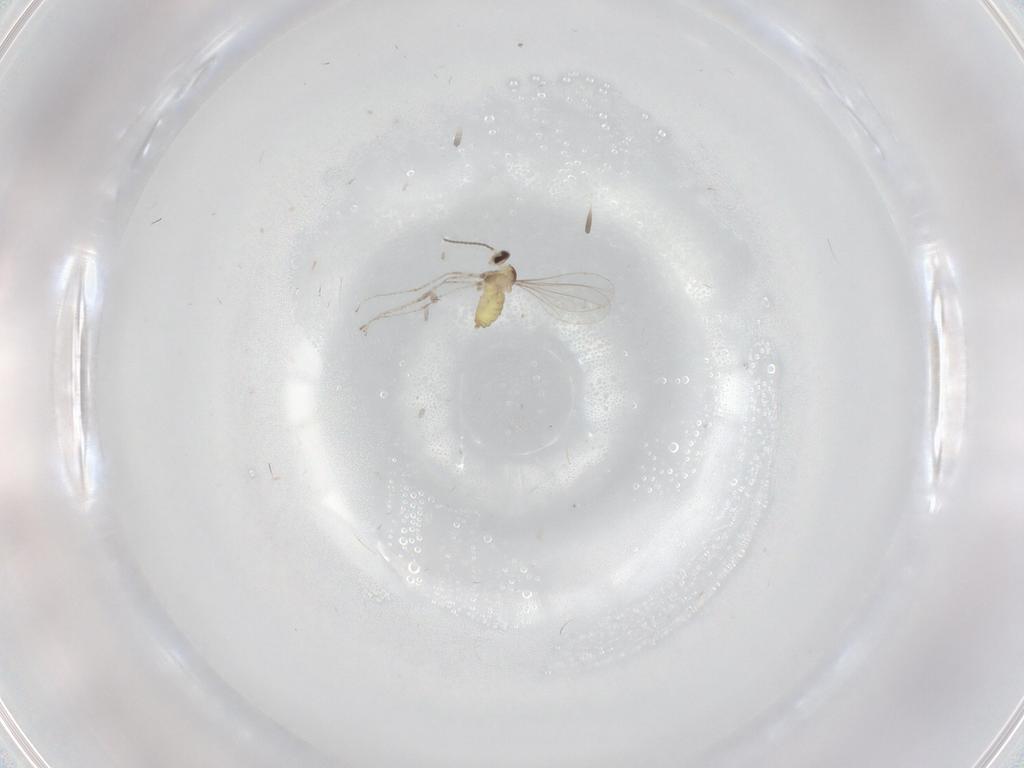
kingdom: Animalia
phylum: Arthropoda
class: Insecta
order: Diptera
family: Cecidomyiidae
